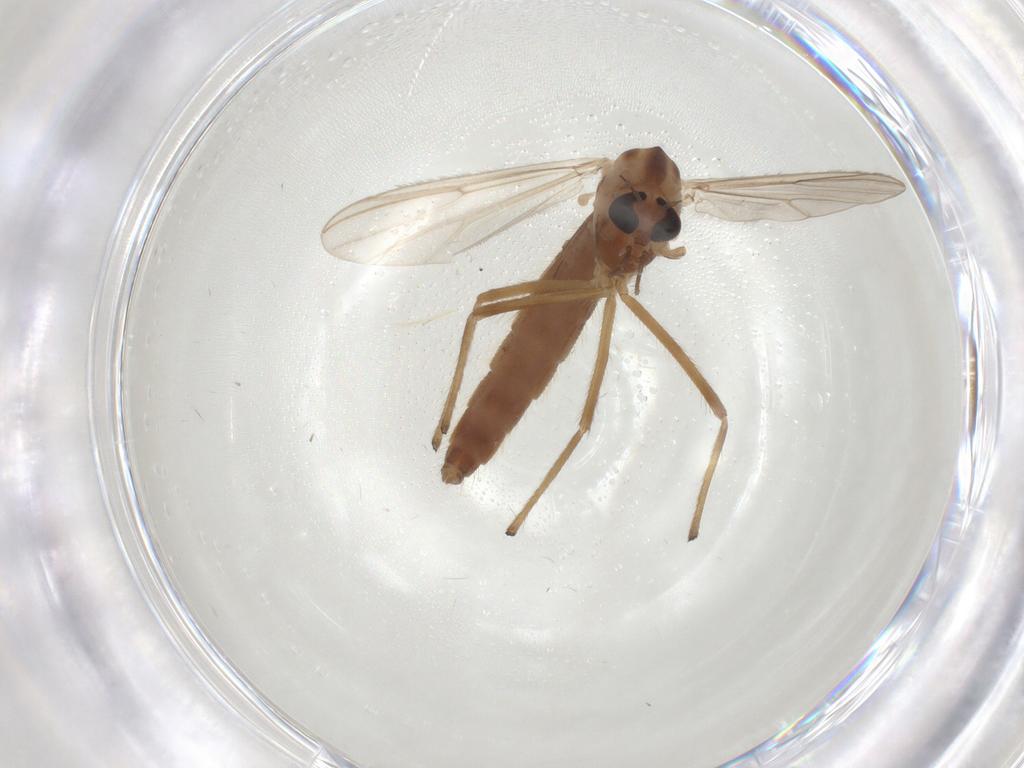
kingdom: Animalia
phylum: Arthropoda
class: Insecta
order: Diptera
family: Chironomidae
